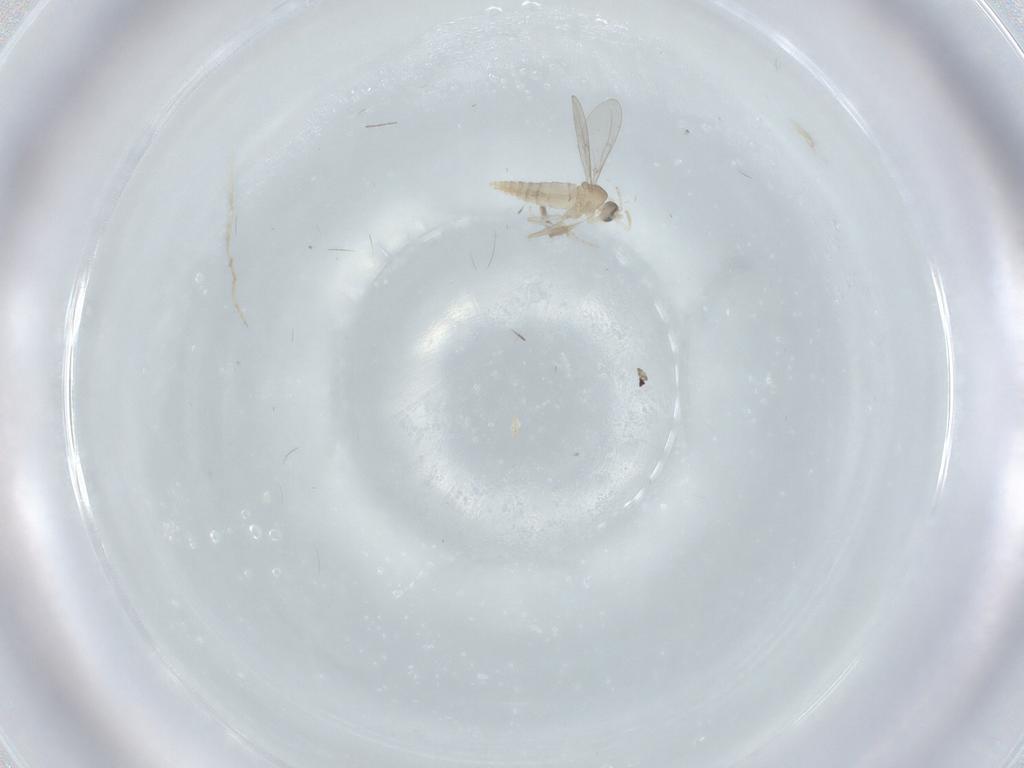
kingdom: Animalia
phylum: Arthropoda
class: Insecta
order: Diptera
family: Cecidomyiidae
